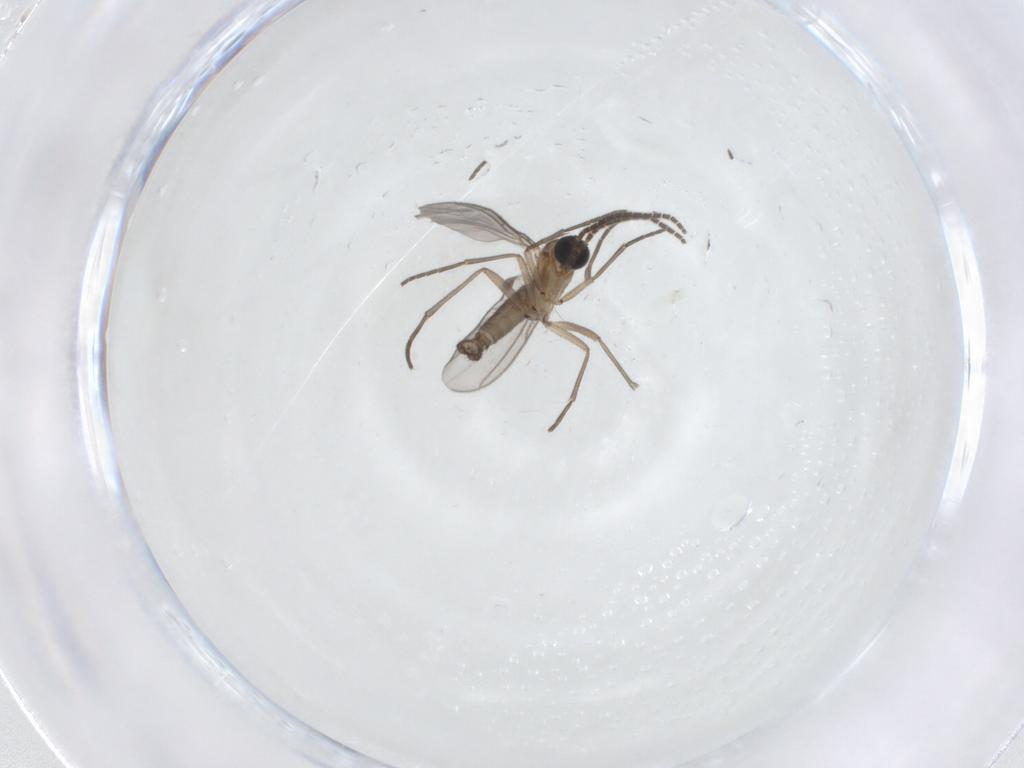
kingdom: Animalia
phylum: Arthropoda
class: Insecta
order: Diptera
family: Sciaridae
